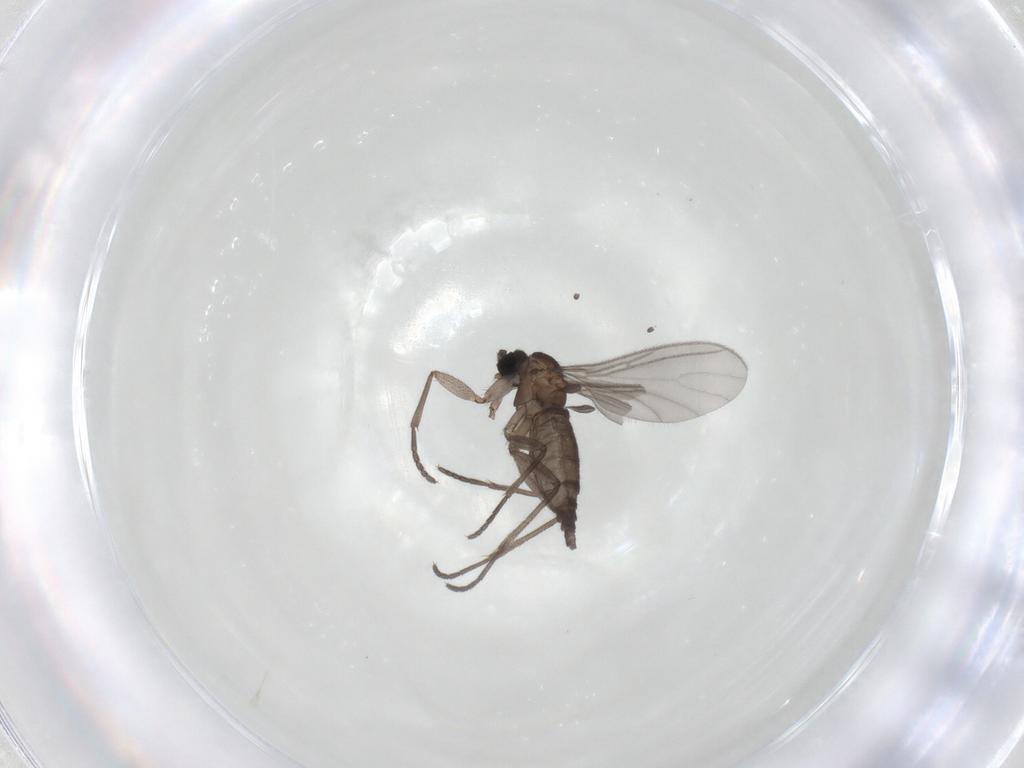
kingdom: Animalia
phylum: Arthropoda
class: Insecta
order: Diptera
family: Sciaridae
